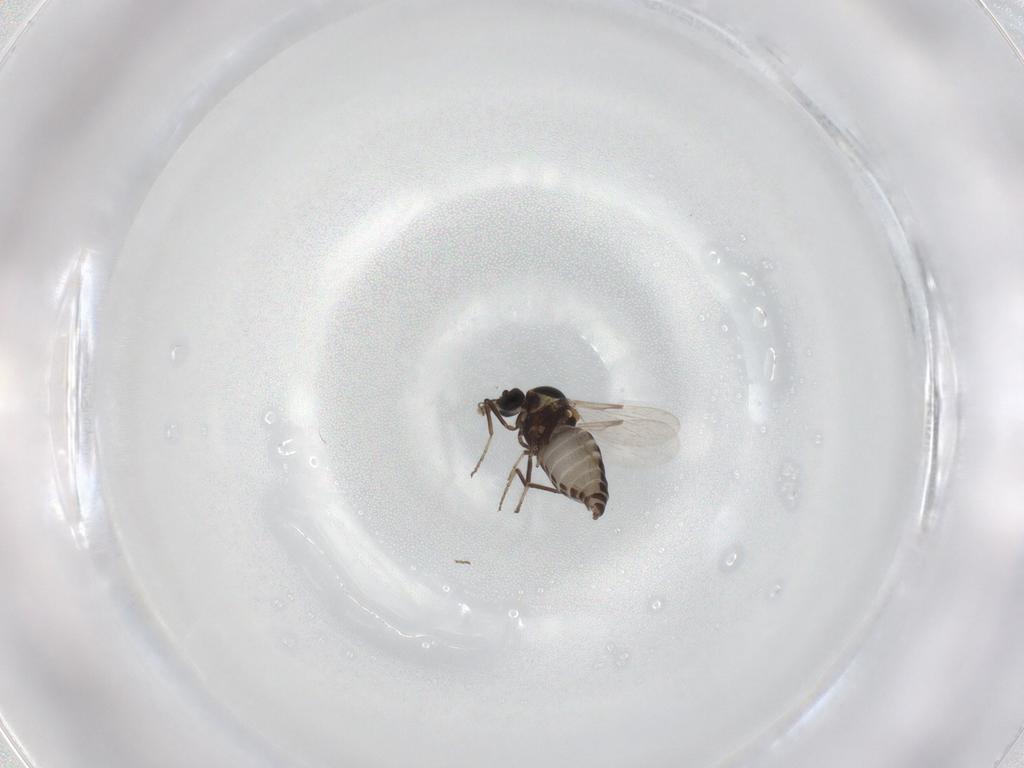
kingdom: Animalia
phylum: Arthropoda
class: Insecta
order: Diptera
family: Ceratopogonidae
